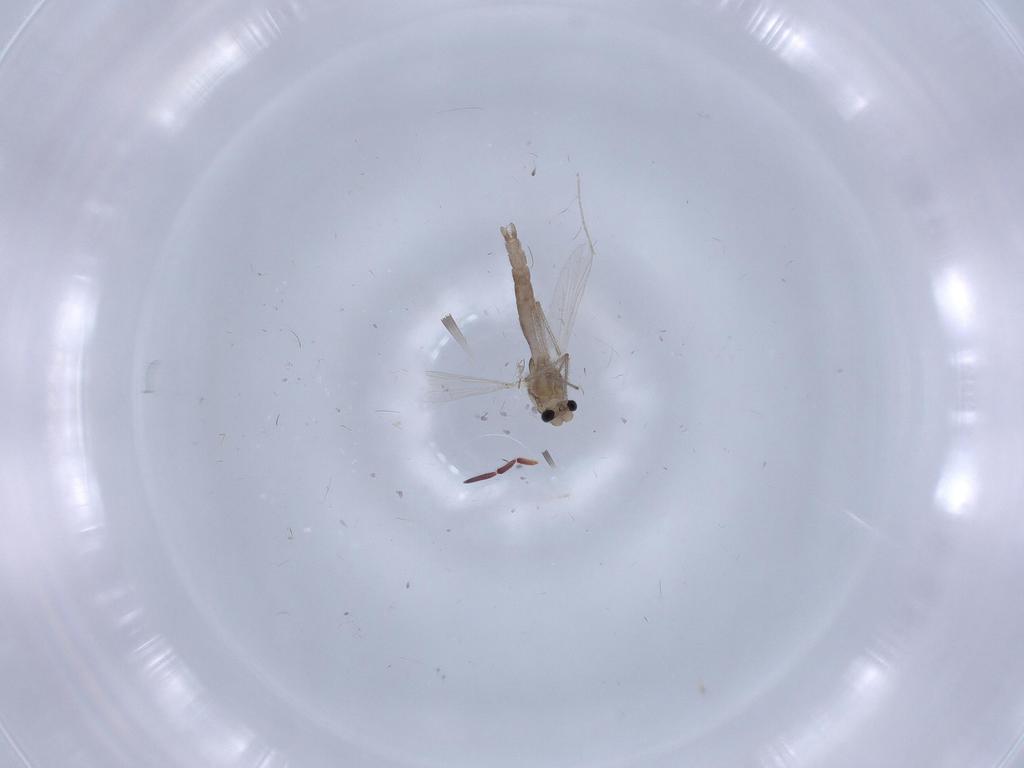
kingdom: Animalia
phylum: Arthropoda
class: Insecta
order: Diptera
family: Chironomidae
